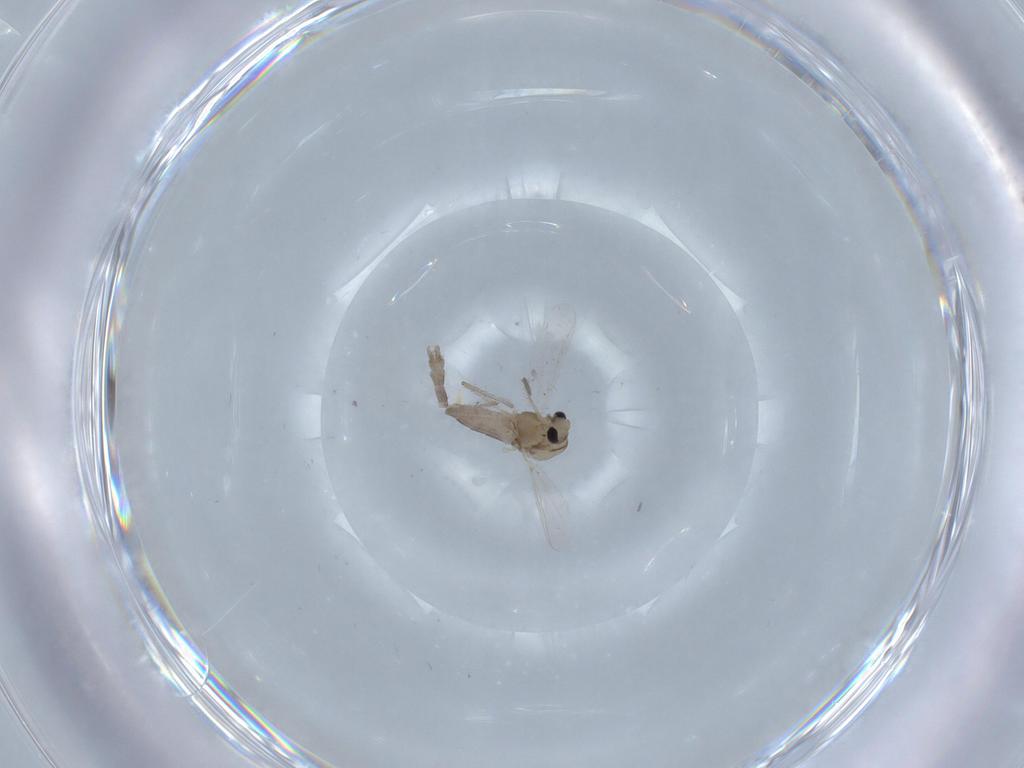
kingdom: Animalia
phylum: Arthropoda
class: Insecta
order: Diptera
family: Chironomidae
